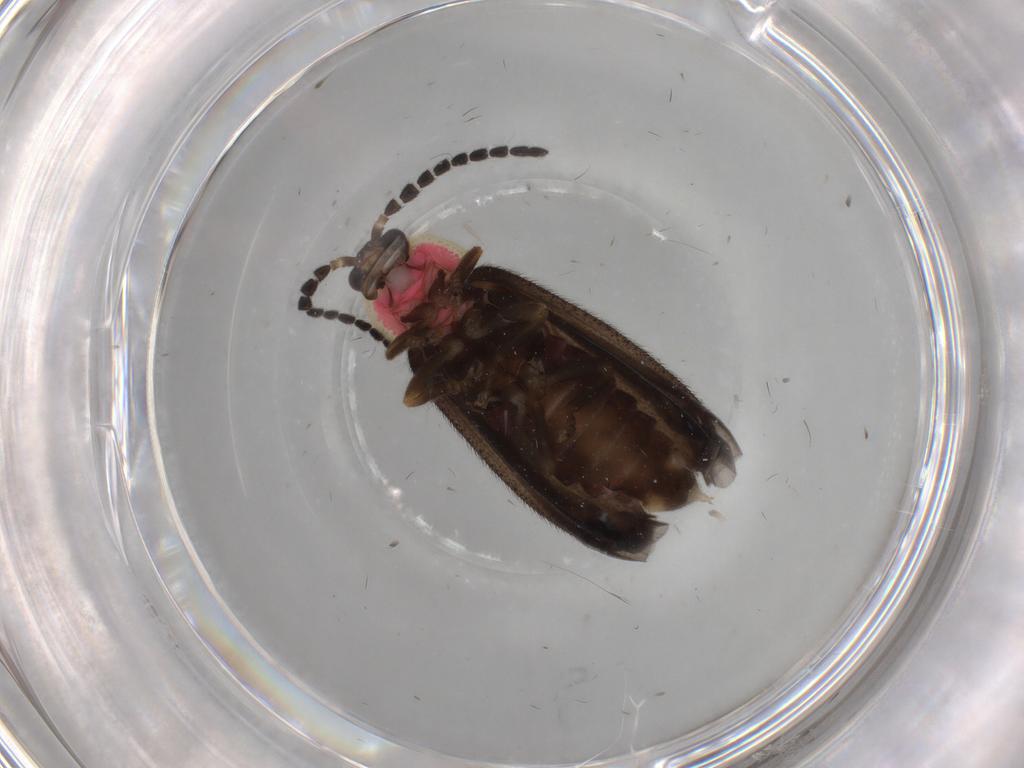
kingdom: Animalia
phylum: Arthropoda
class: Insecta
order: Coleoptera
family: Lampyridae
